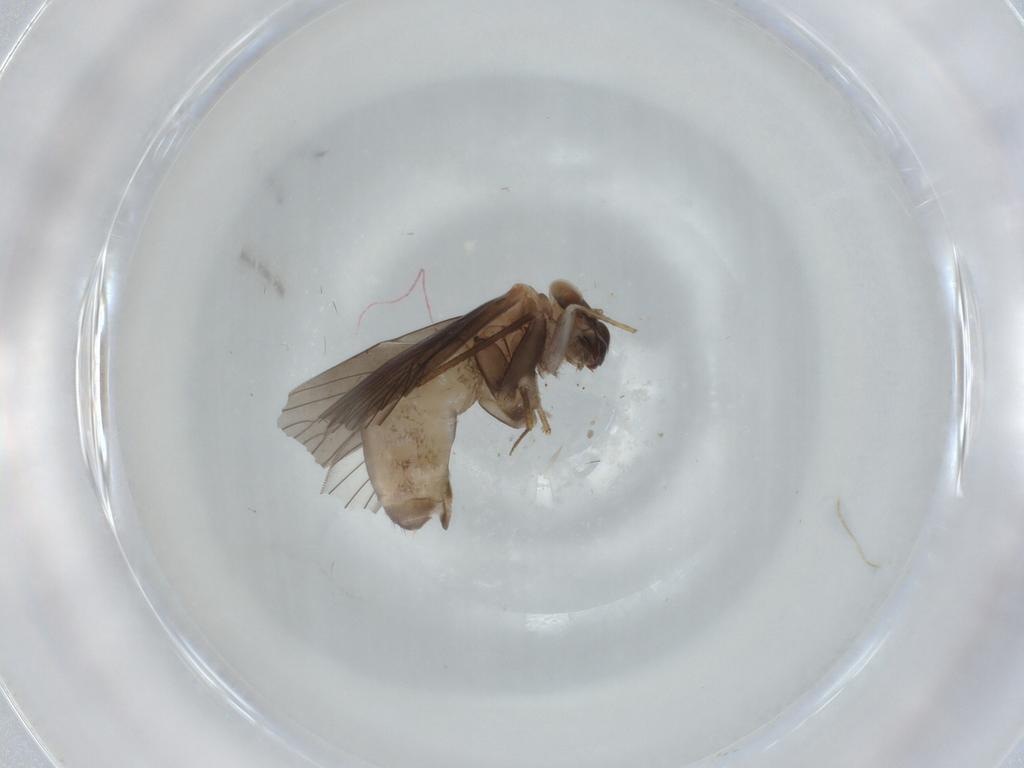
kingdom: Animalia
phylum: Arthropoda
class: Insecta
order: Psocodea
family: Lepidopsocidae
